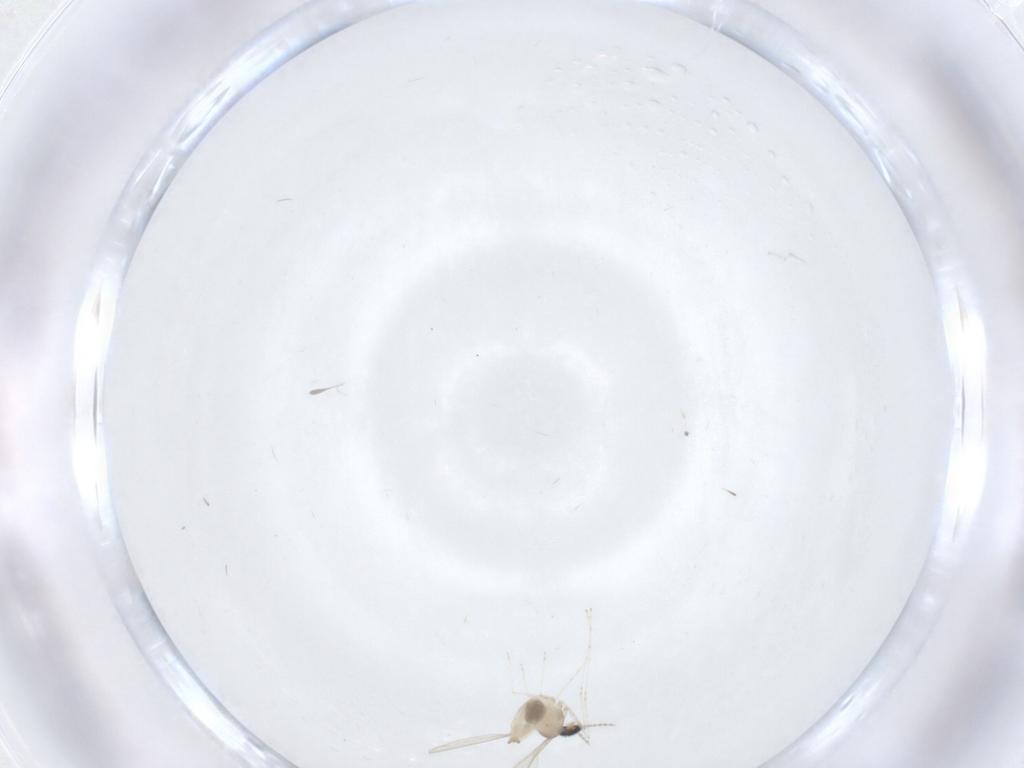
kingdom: Animalia
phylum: Arthropoda
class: Insecta
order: Diptera
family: Cecidomyiidae
